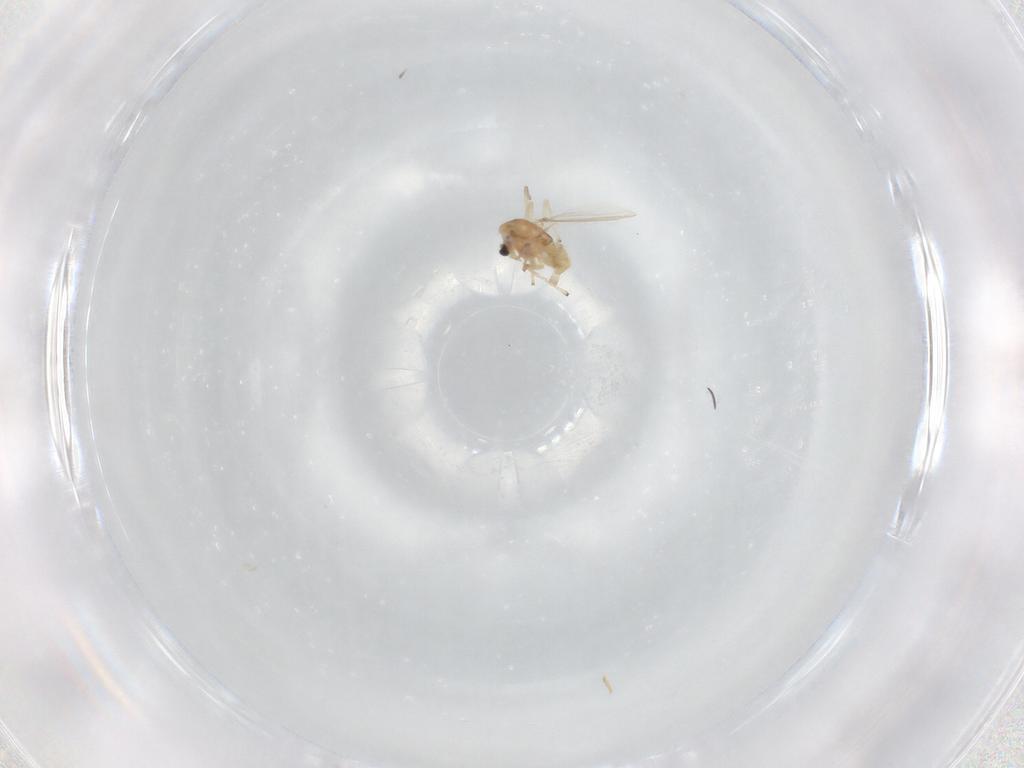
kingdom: Animalia
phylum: Arthropoda
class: Insecta
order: Diptera
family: Chironomidae
